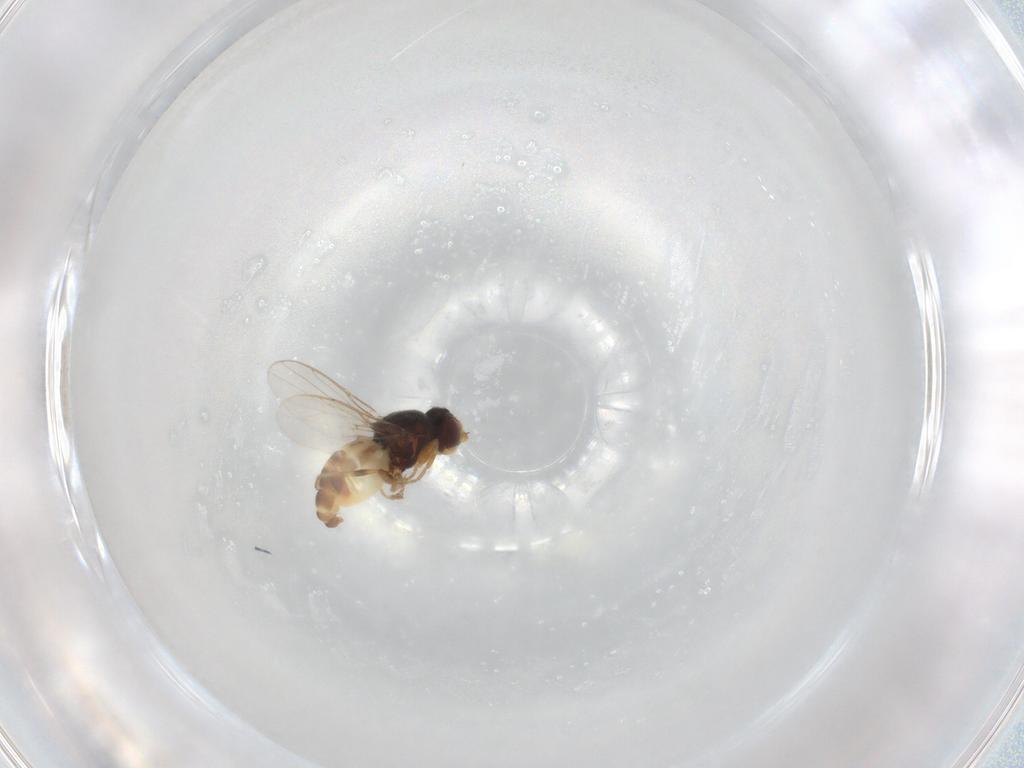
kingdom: Animalia
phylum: Arthropoda
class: Insecta
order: Diptera
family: Chloropidae
